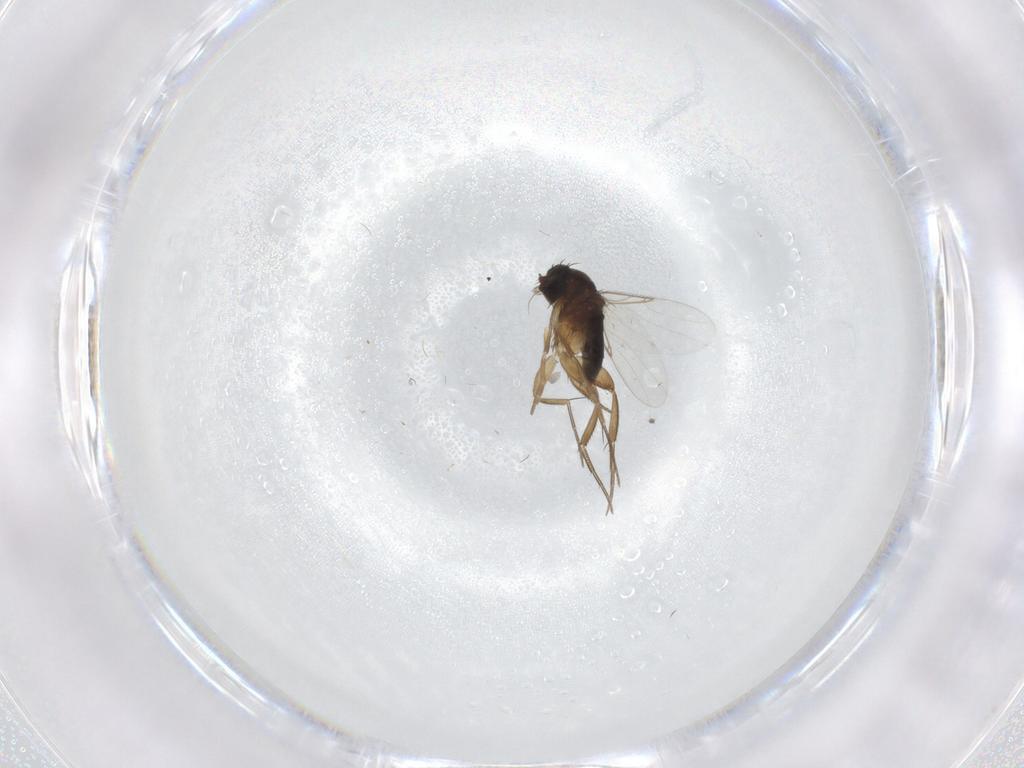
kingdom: Animalia
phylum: Arthropoda
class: Insecta
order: Diptera
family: Phoridae
